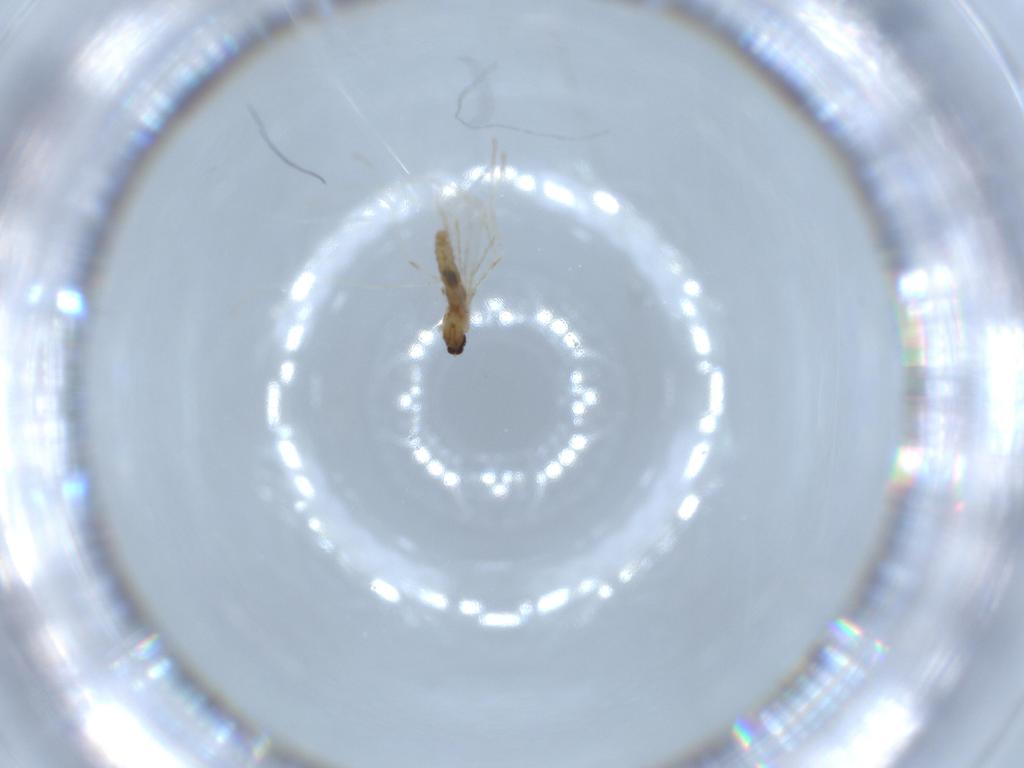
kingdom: Animalia
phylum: Arthropoda
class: Insecta
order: Diptera
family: Cecidomyiidae
